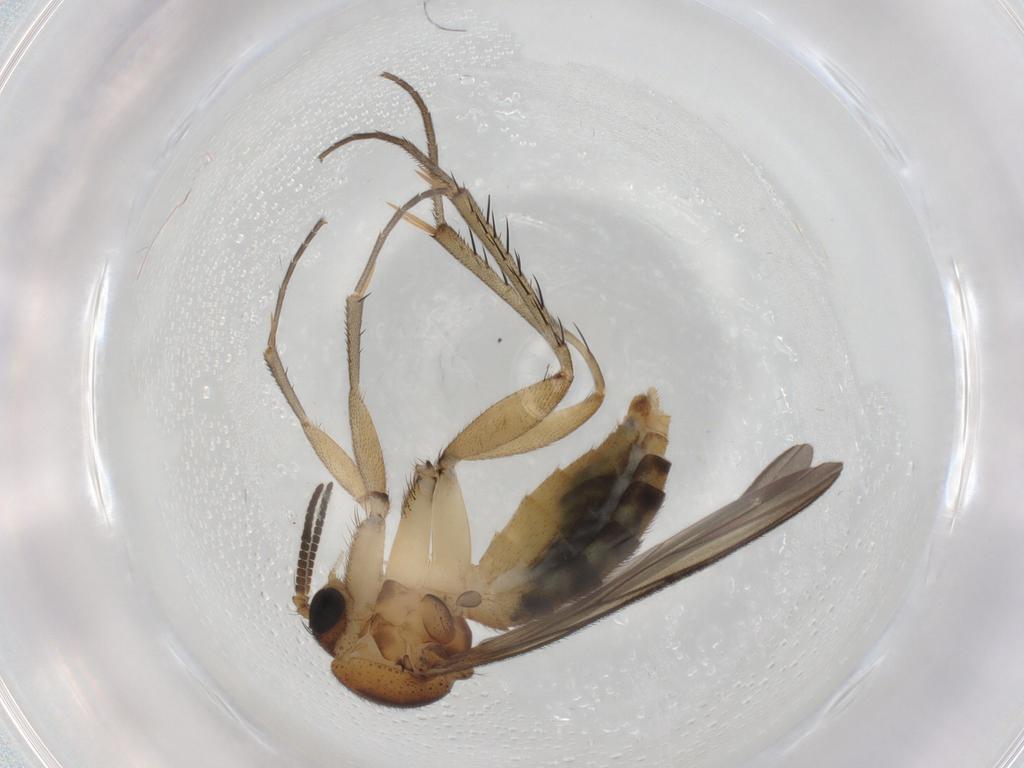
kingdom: Animalia
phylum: Arthropoda
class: Insecta
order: Diptera
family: Mycetophilidae
